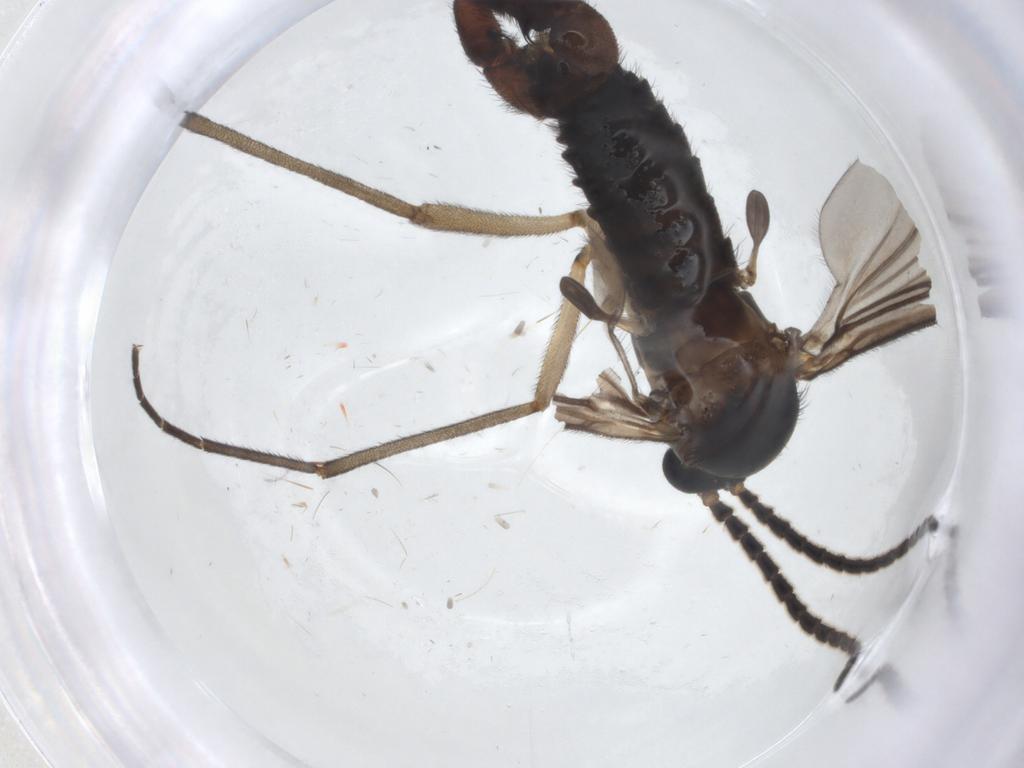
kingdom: Animalia
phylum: Arthropoda
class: Insecta
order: Diptera
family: Sciaridae
